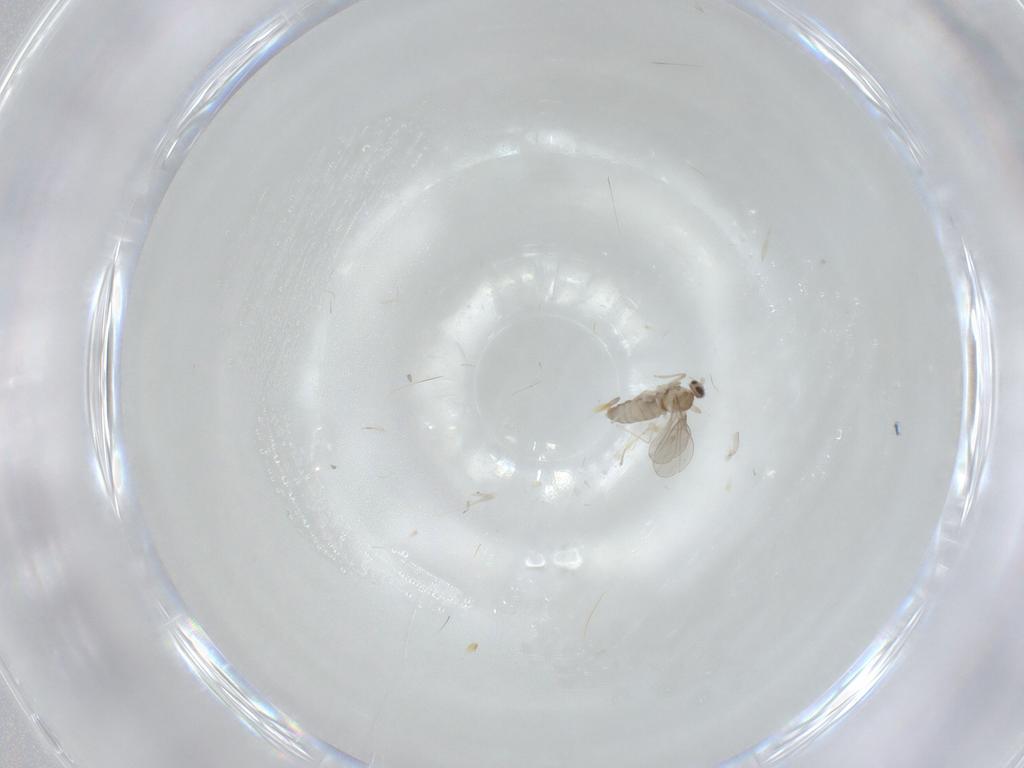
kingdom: Animalia
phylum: Arthropoda
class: Insecta
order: Diptera
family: Cecidomyiidae
